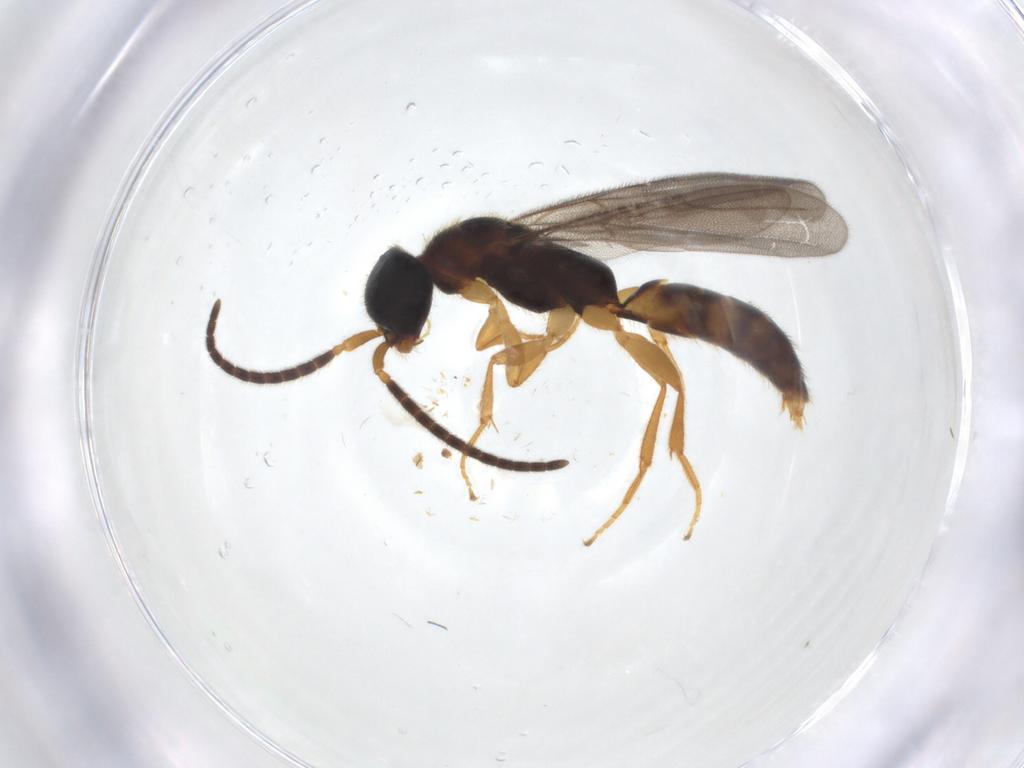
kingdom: Animalia
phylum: Arthropoda
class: Insecta
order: Hymenoptera
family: Bethylidae
